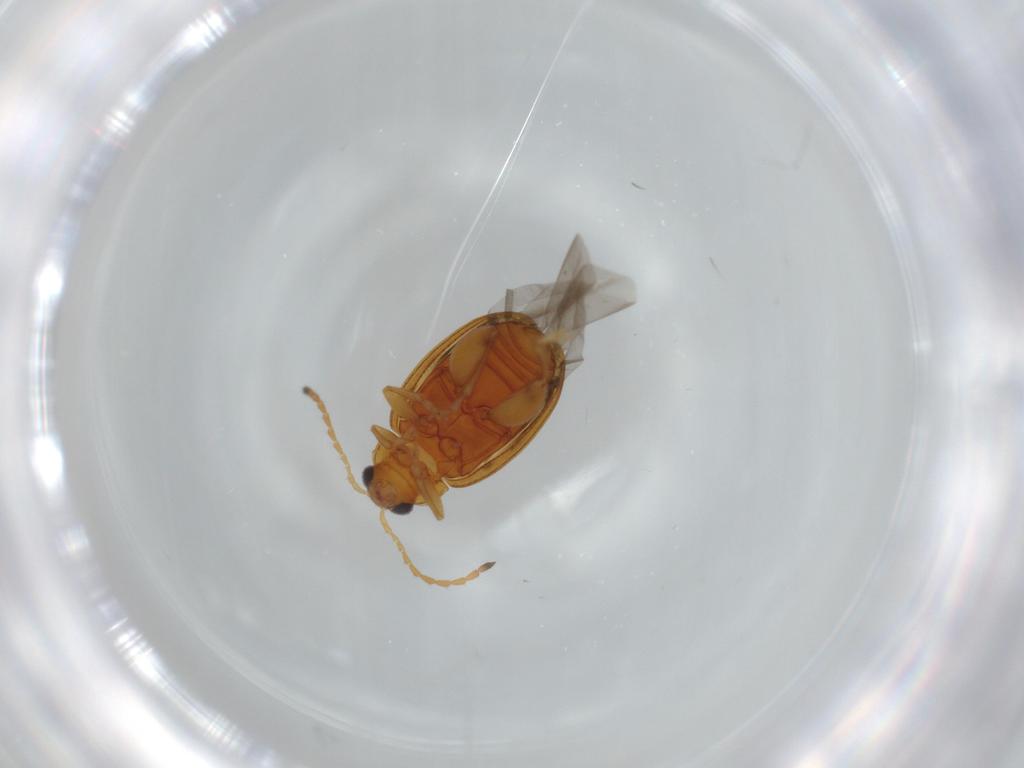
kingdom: Animalia
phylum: Arthropoda
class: Insecta
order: Coleoptera
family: Chrysomelidae
